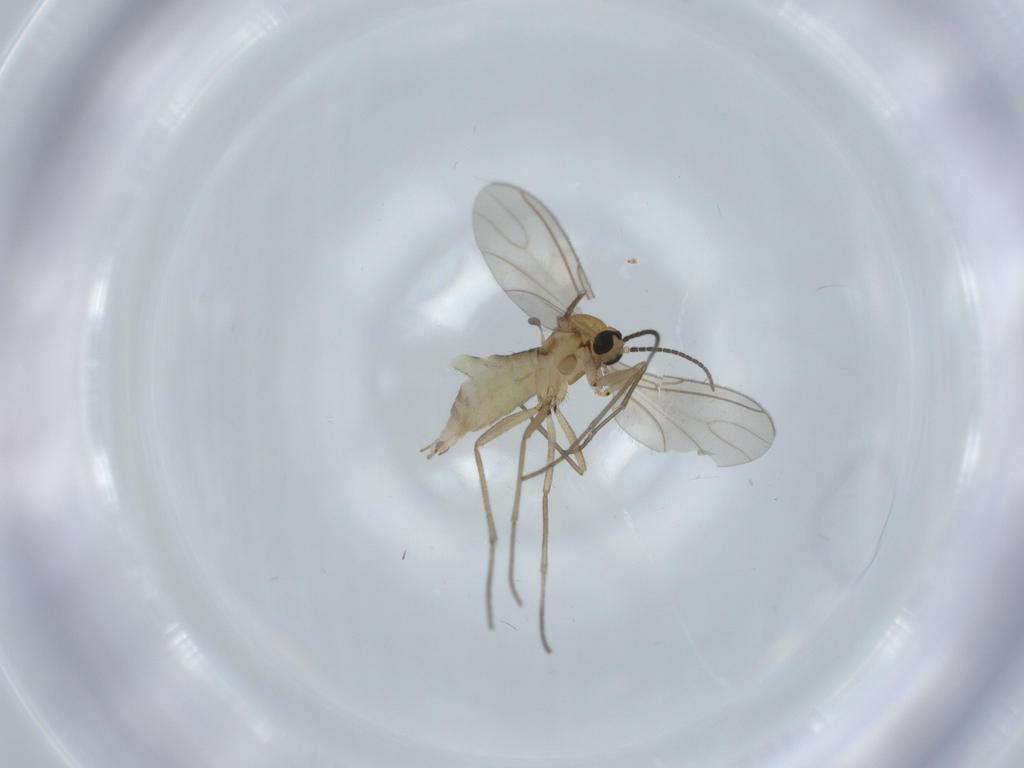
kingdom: Animalia
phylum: Arthropoda
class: Insecta
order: Diptera
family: Sciaridae
